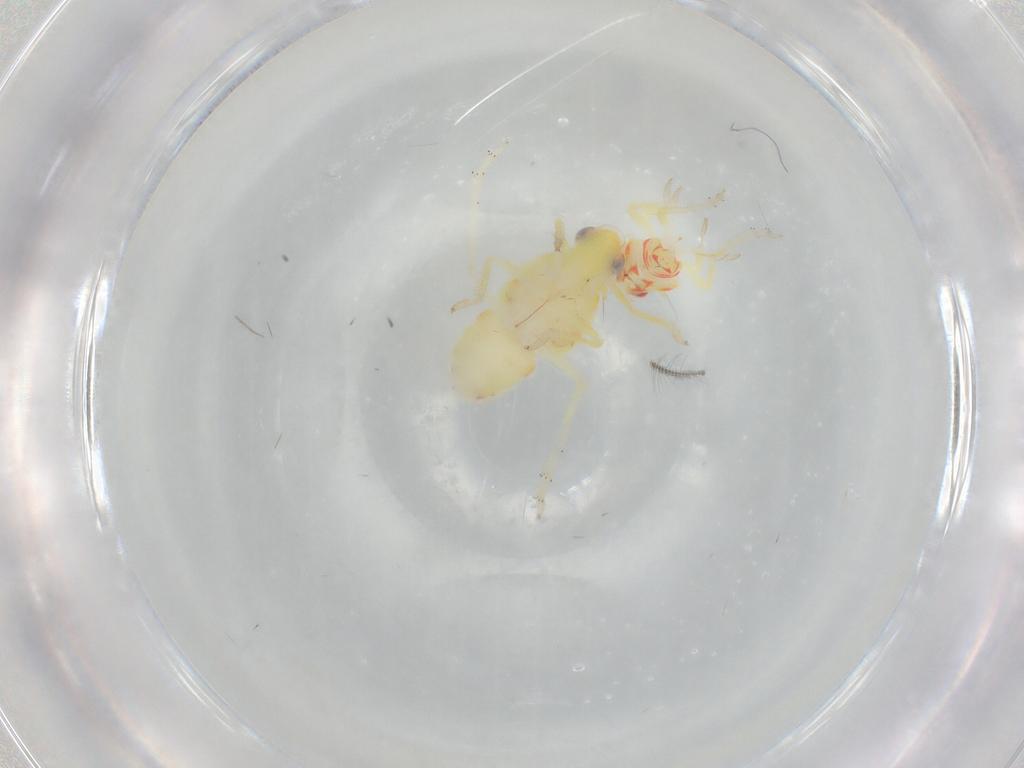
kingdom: Animalia
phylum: Arthropoda
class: Insecta
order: Hemiptera
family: Tropiduchidae
